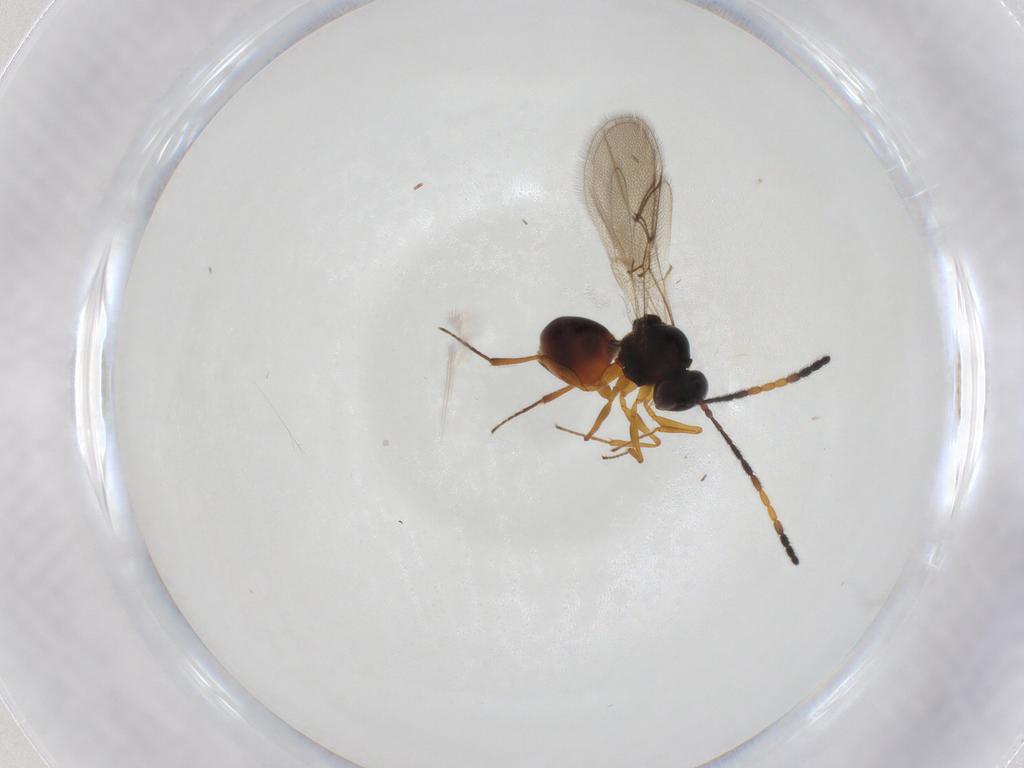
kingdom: Animalia
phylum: Arthropoda
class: Insecta
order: Hymenoptera
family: Figitidae
